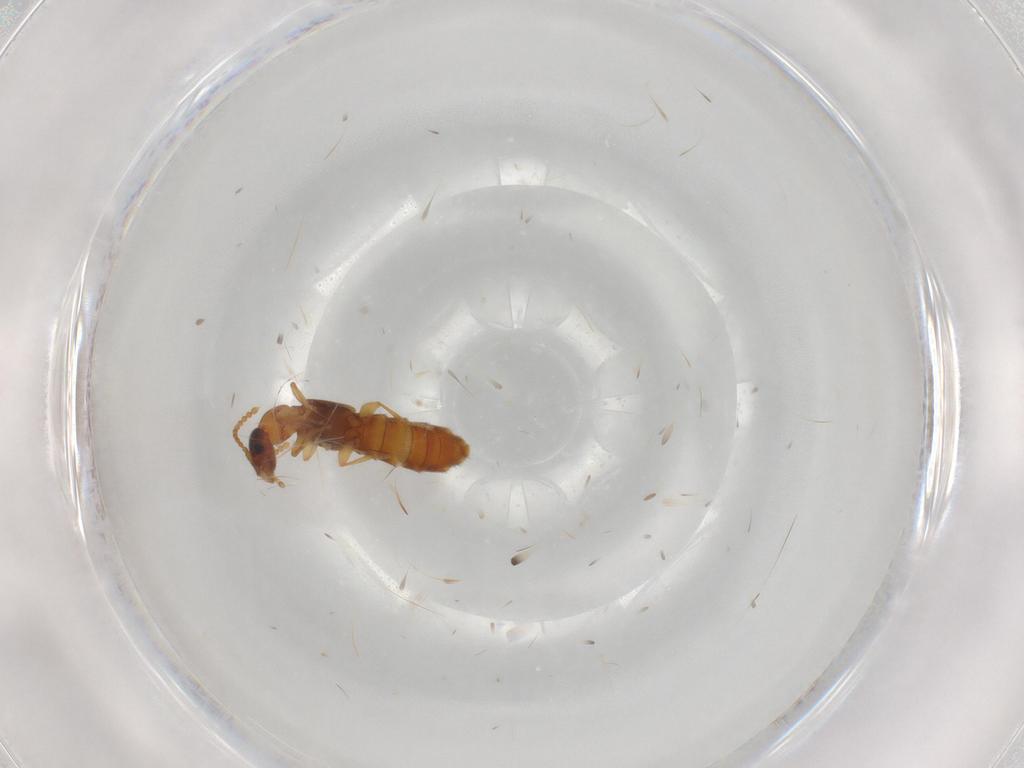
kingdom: Animalia
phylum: Arthropoda
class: Insecta
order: Coleoptera
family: Staphylinidae
